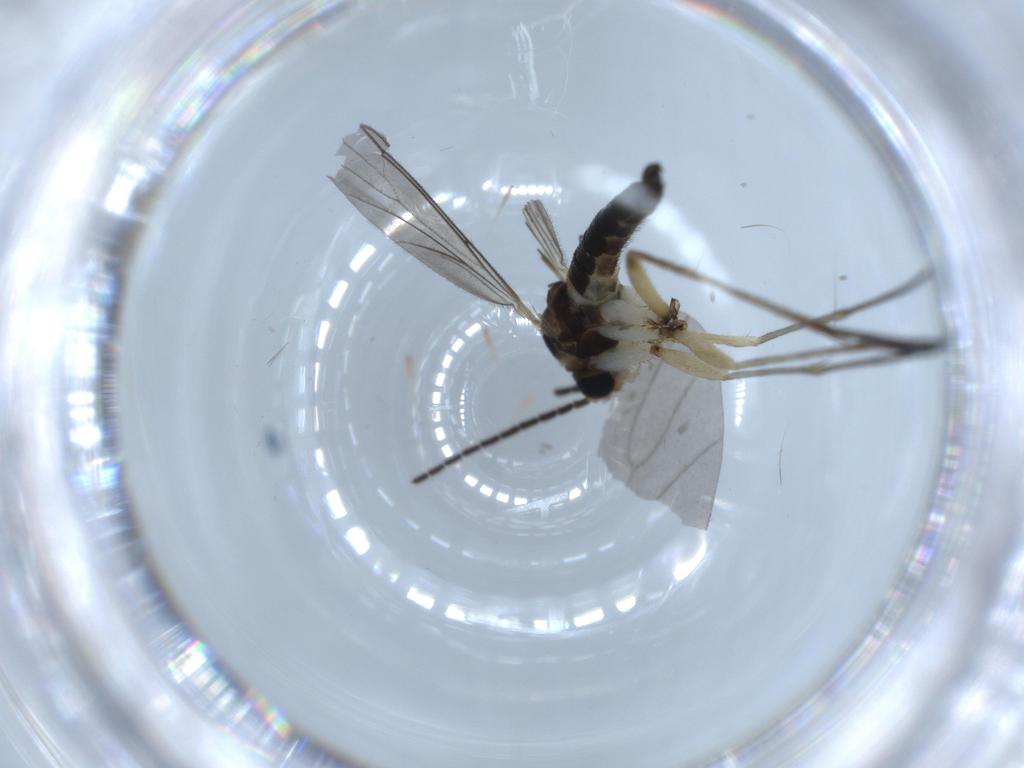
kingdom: Animalia
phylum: Arthropoda
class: Insecta
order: Diptera
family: Sciaridae
